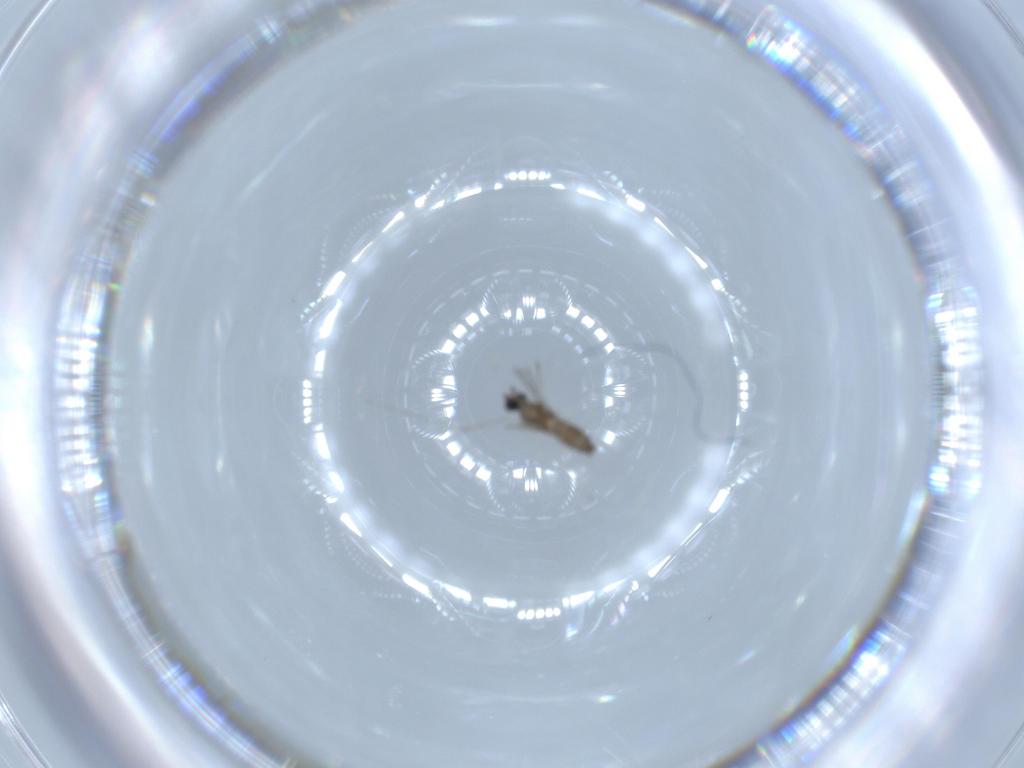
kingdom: Animalia
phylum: Arthropoda
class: Insecta
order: Diptera
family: Cecidomyiidae
